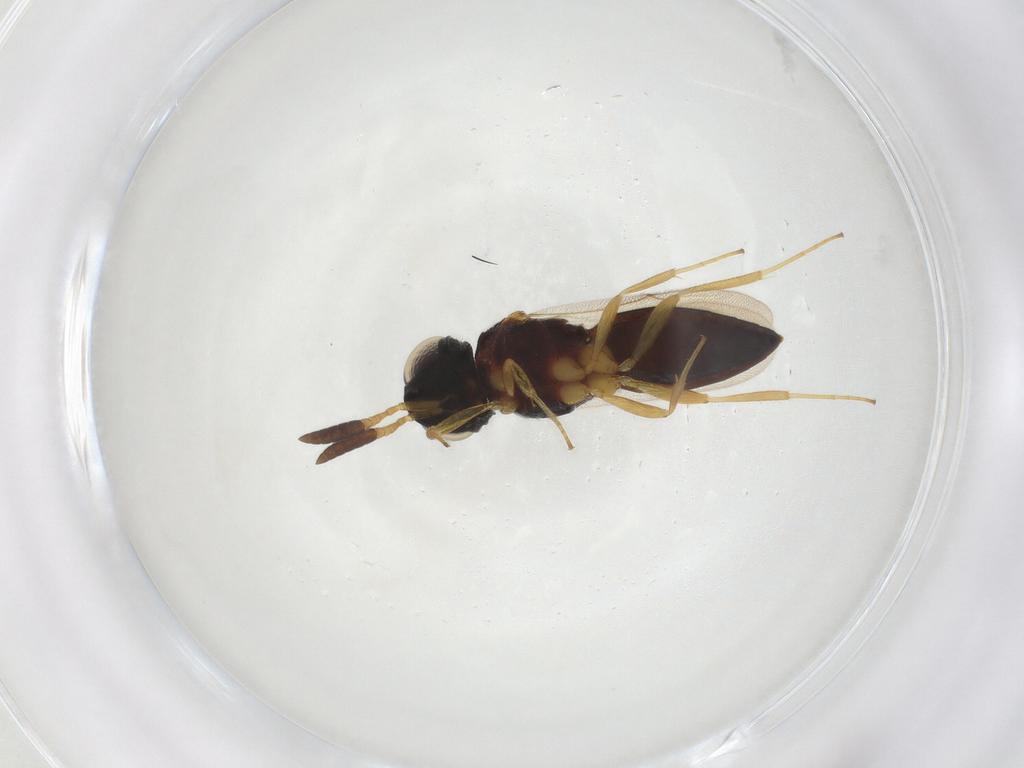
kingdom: Animalia
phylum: Arthropoda
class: Insecta
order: Hymenoptera
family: Scelionidae
